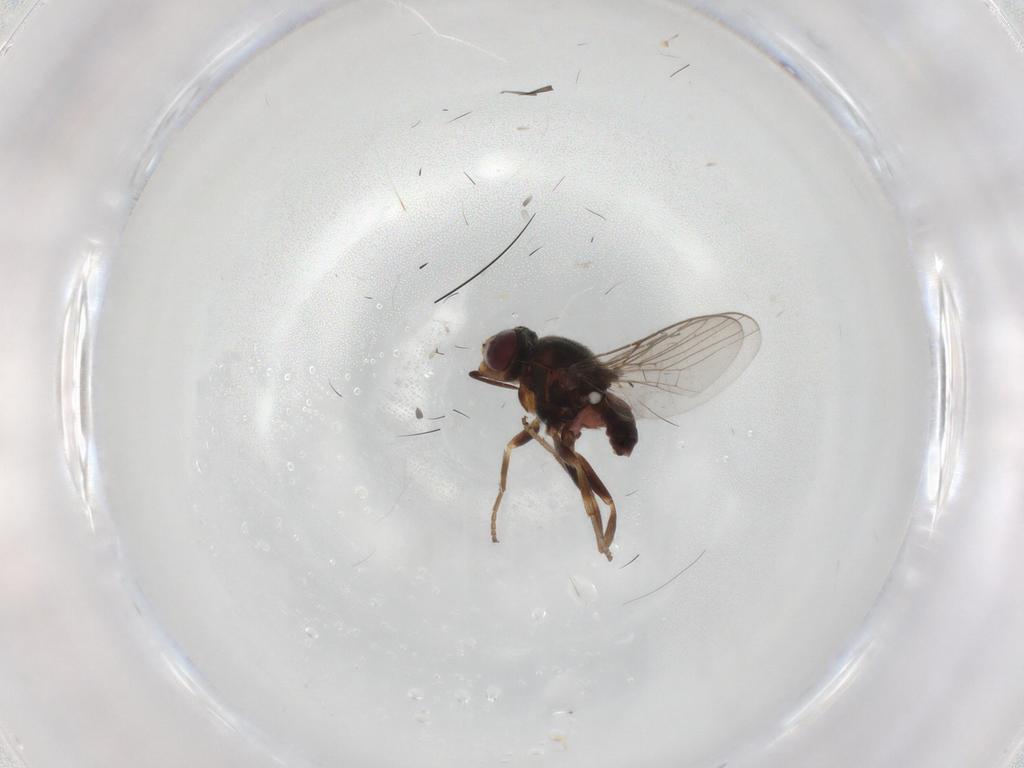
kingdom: Animalia
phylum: Arthropoda
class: Insecta
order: Diptera
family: Chloropidae
